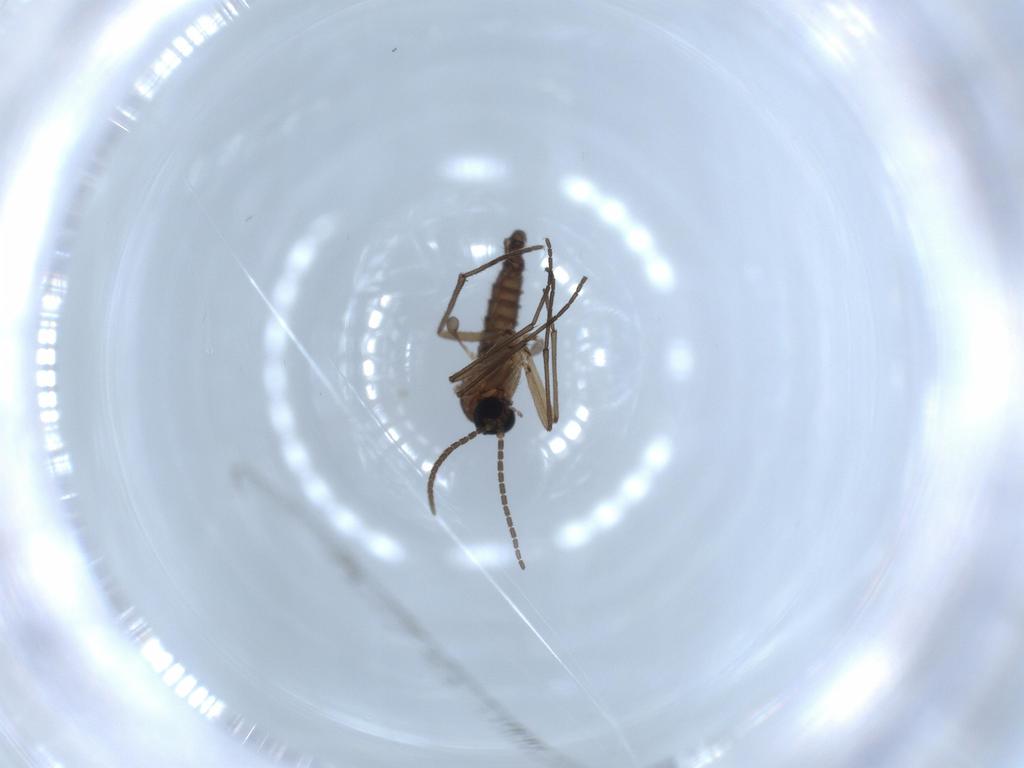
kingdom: Animalia
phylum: Arthropoda
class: Insecta
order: Diptera
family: Sciaridae
